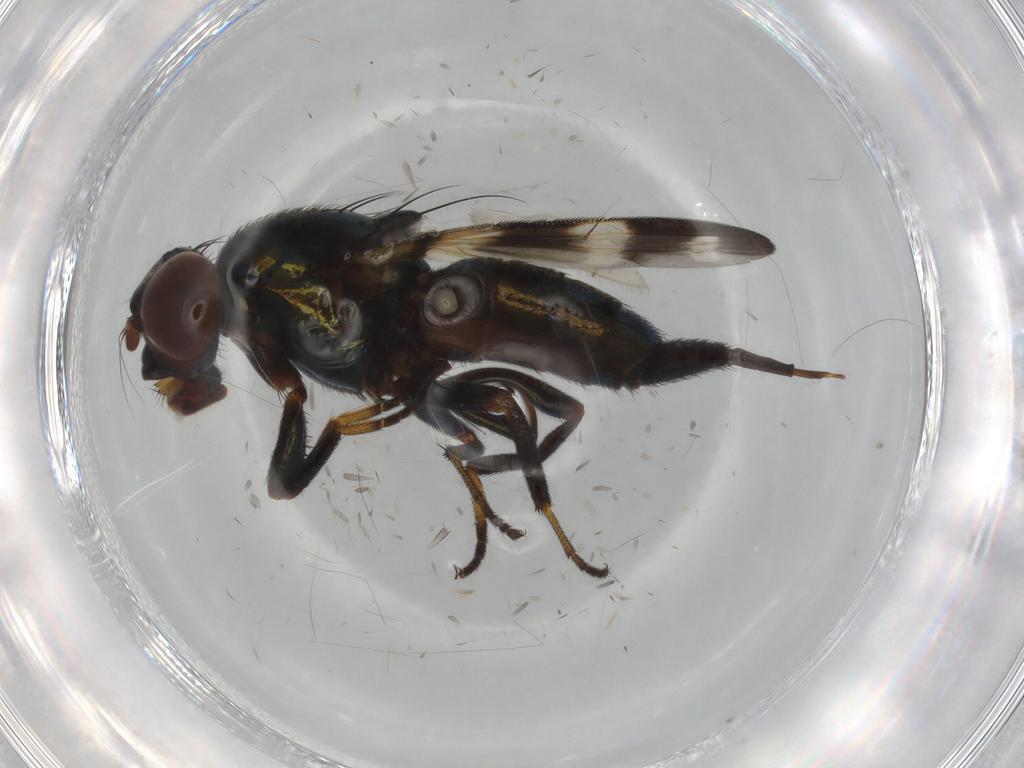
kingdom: Animalia
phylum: Arthropoda
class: Insecta
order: Diptera
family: Ulidiidae
